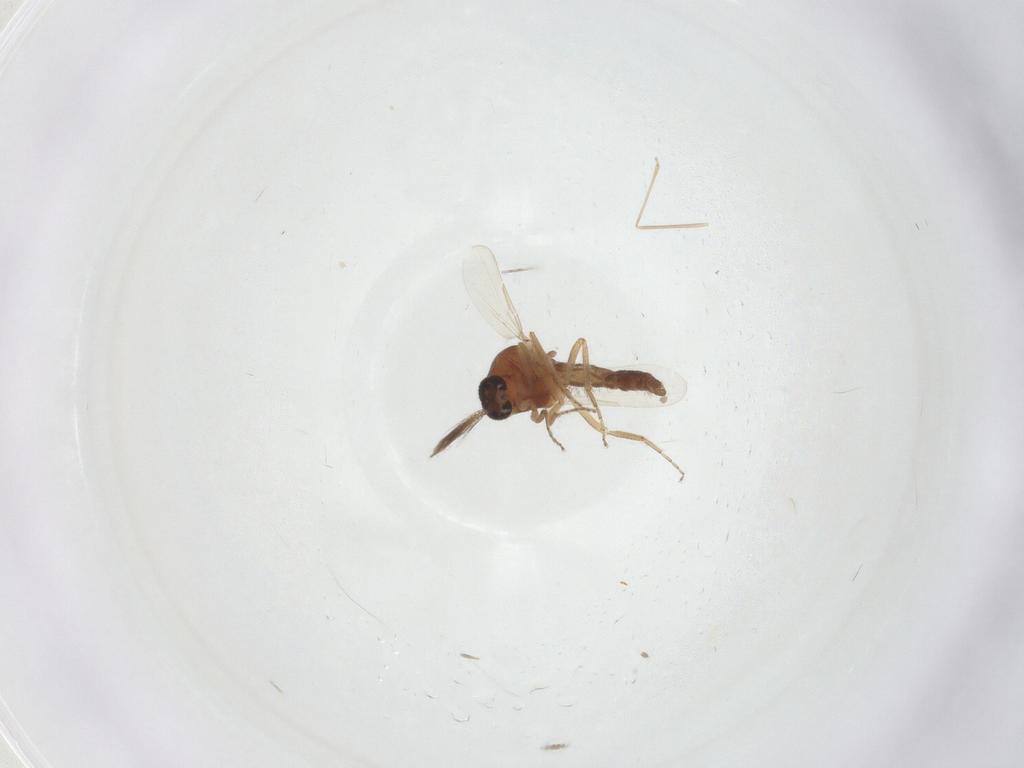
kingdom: Animalia
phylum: Arthropoda
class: Insecta
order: Diptera
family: Ceratopogonidae
